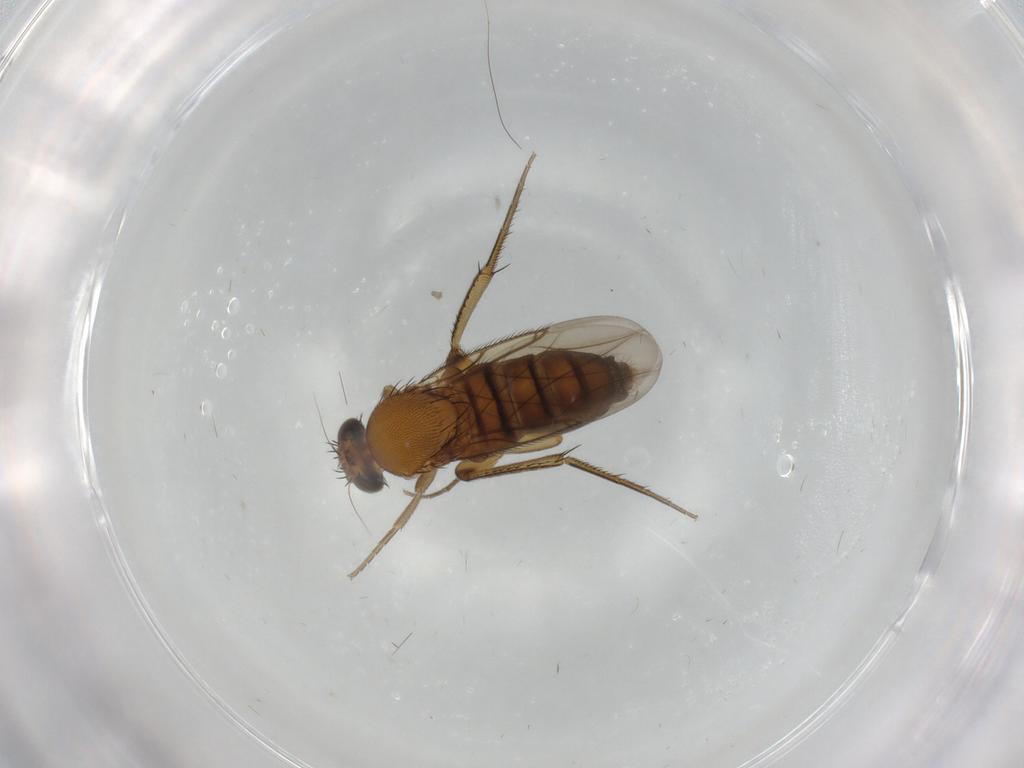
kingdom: Animalia
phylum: Arthropoda
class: Insecta
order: Diptera
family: Phoridae
